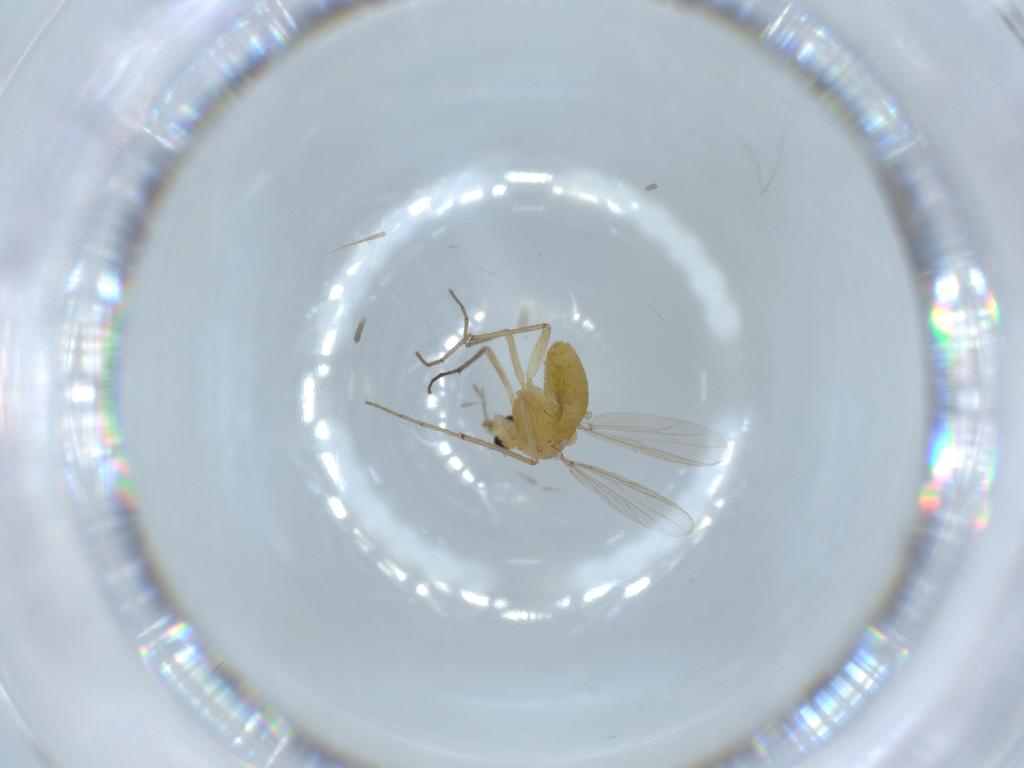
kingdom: Animalia
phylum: Arthropoda
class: Insecta
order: Diptera
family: Chironomidae
